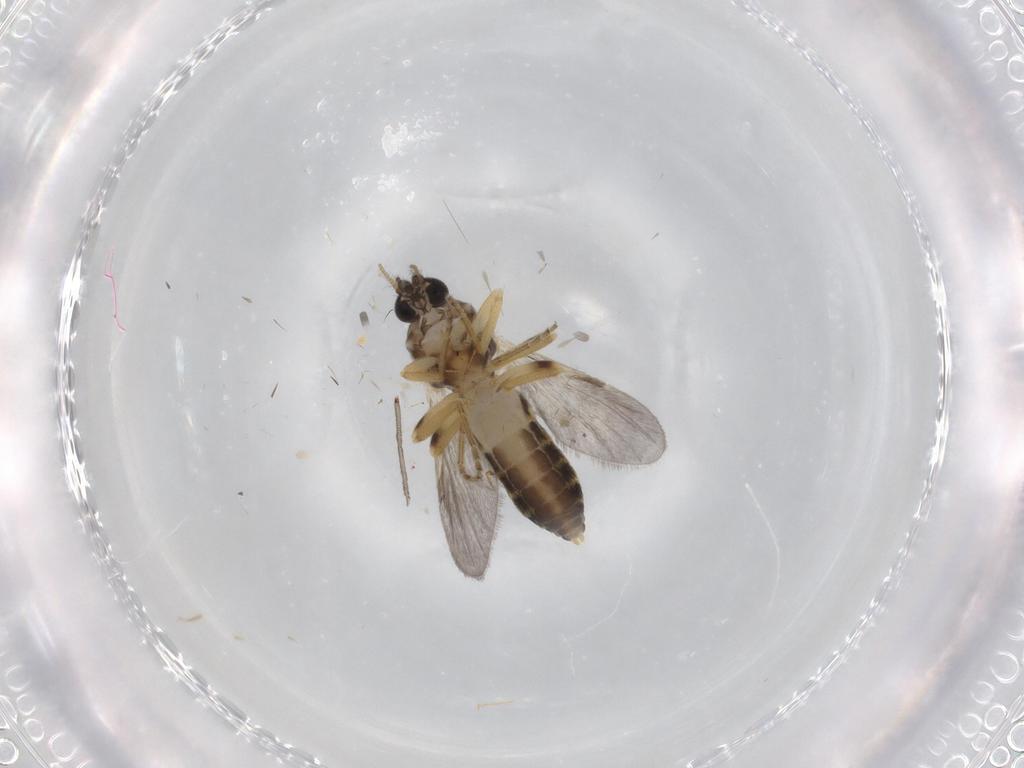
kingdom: Animalia
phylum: Arthropoda
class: Insecta
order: Diptera
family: Ceratopogonidae
